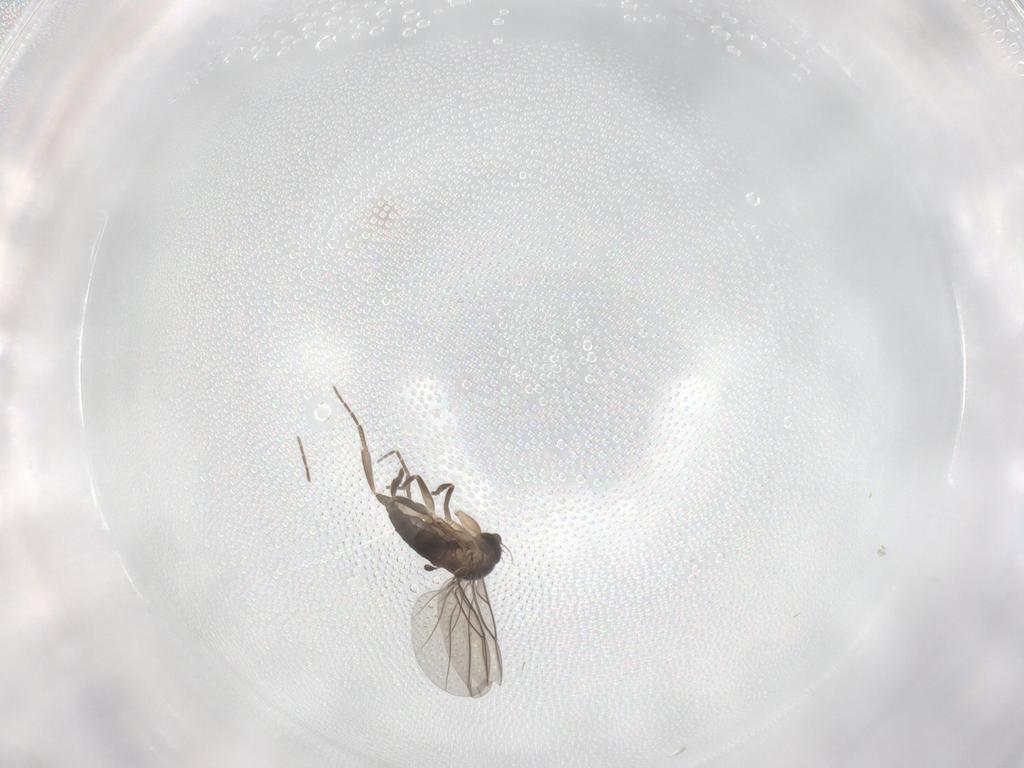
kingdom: Animalia
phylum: Arthropoda
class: Insecta
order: Diptera
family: Phoridae
